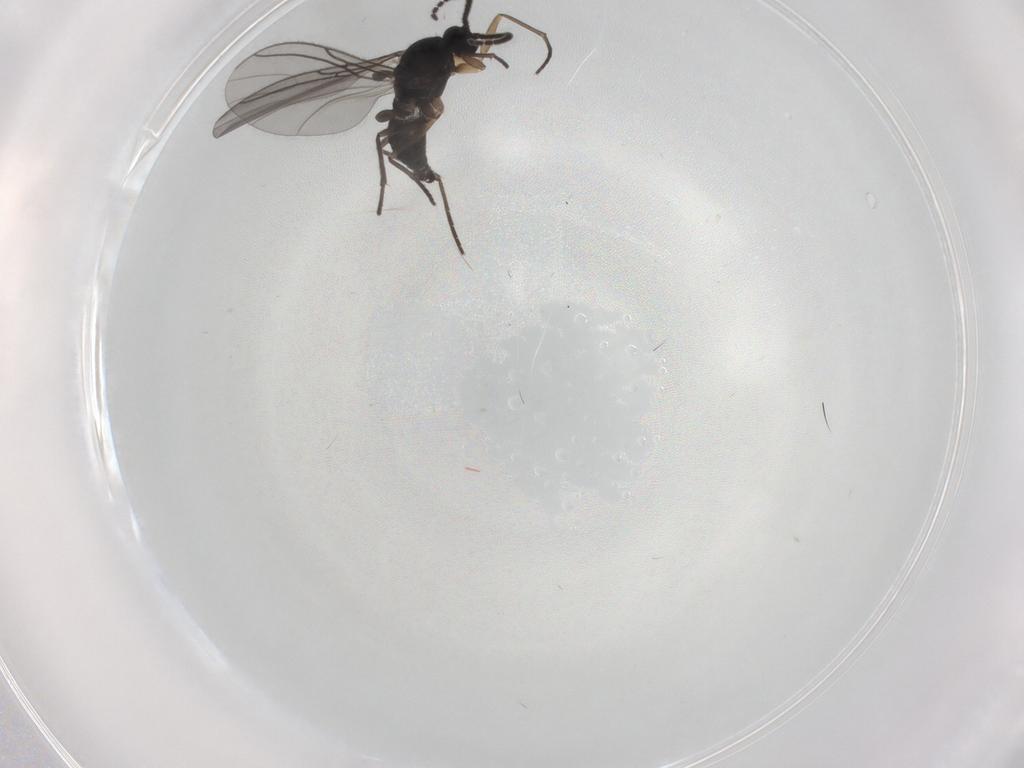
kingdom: Animalia
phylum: Arthropoda
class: Insecta
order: Diptera
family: Sciaridae
